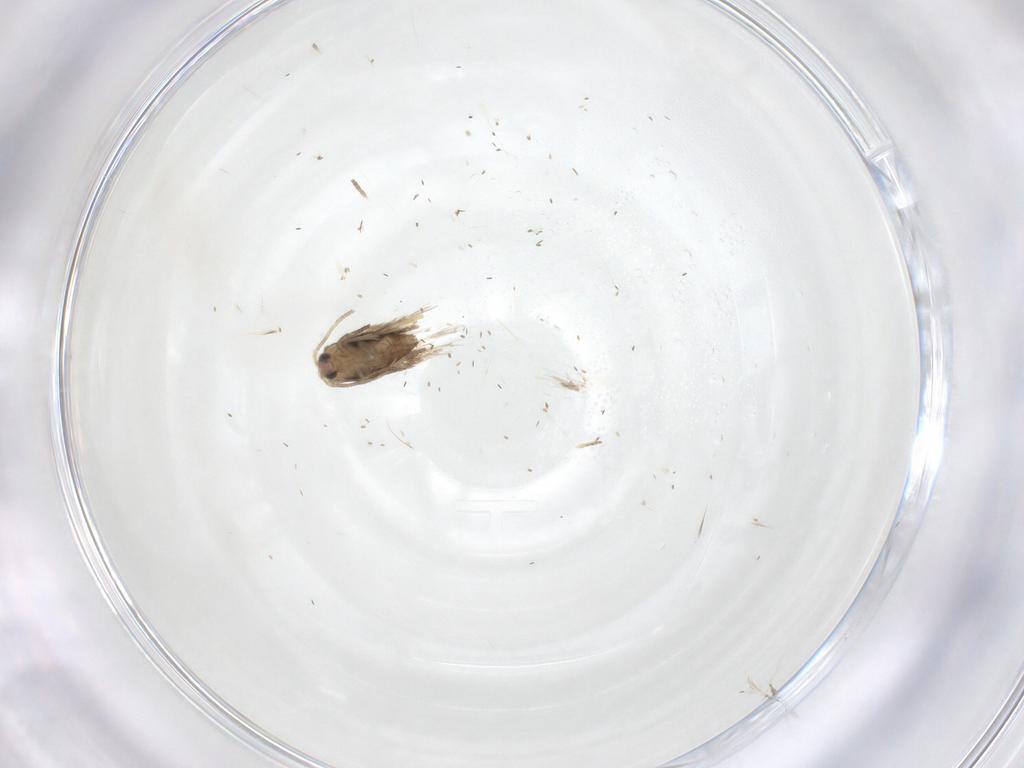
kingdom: Animalia
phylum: Arthropoda
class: Insecta
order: Lepidoptera
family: Nepticulidae
